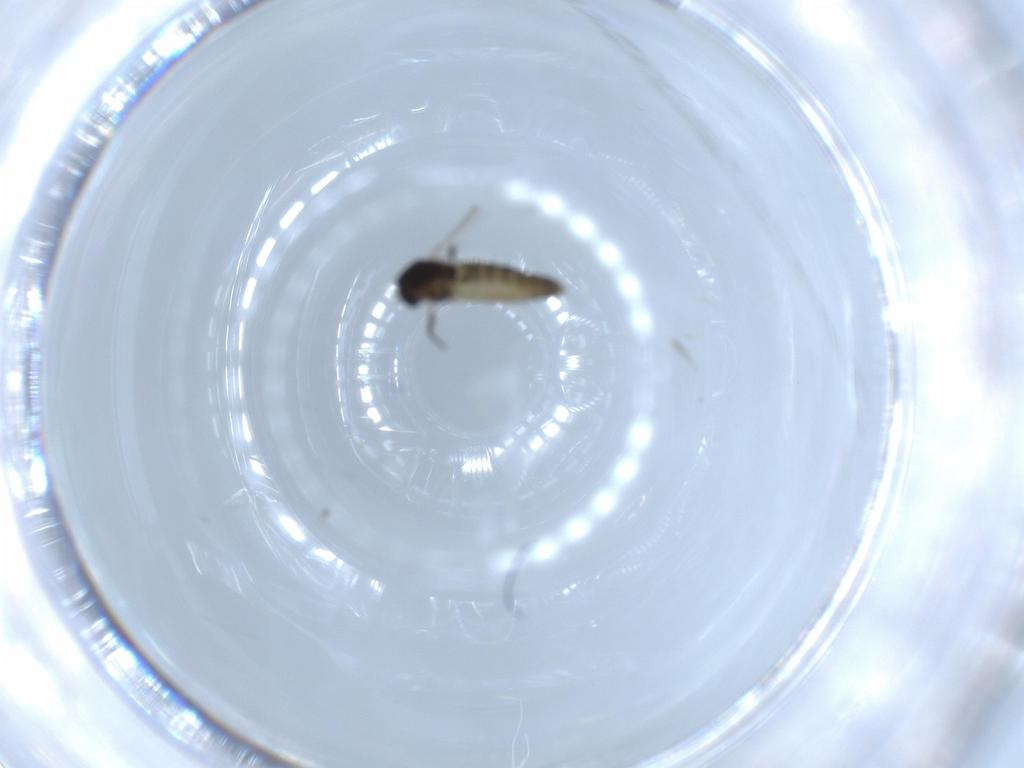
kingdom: Animalia
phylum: Arthropoda
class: Insecta
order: Diptera
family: Chironomidae
